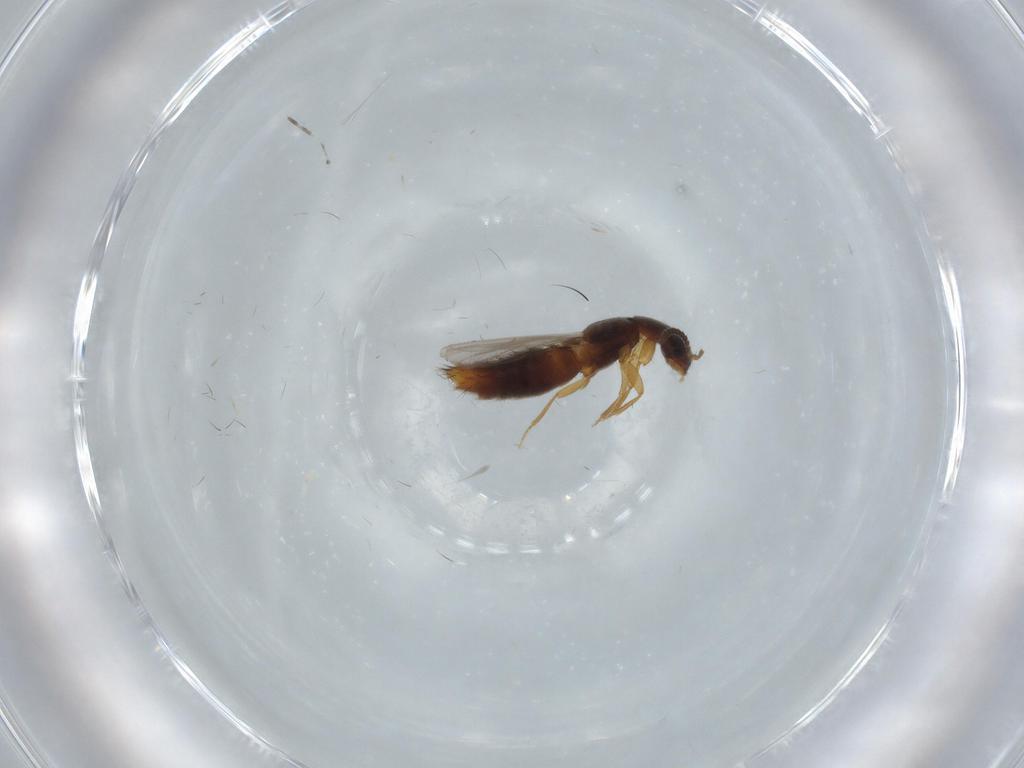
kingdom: Animalia
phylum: Arthropoda
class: Insecta
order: Coleoptera
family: Staphylinidae
